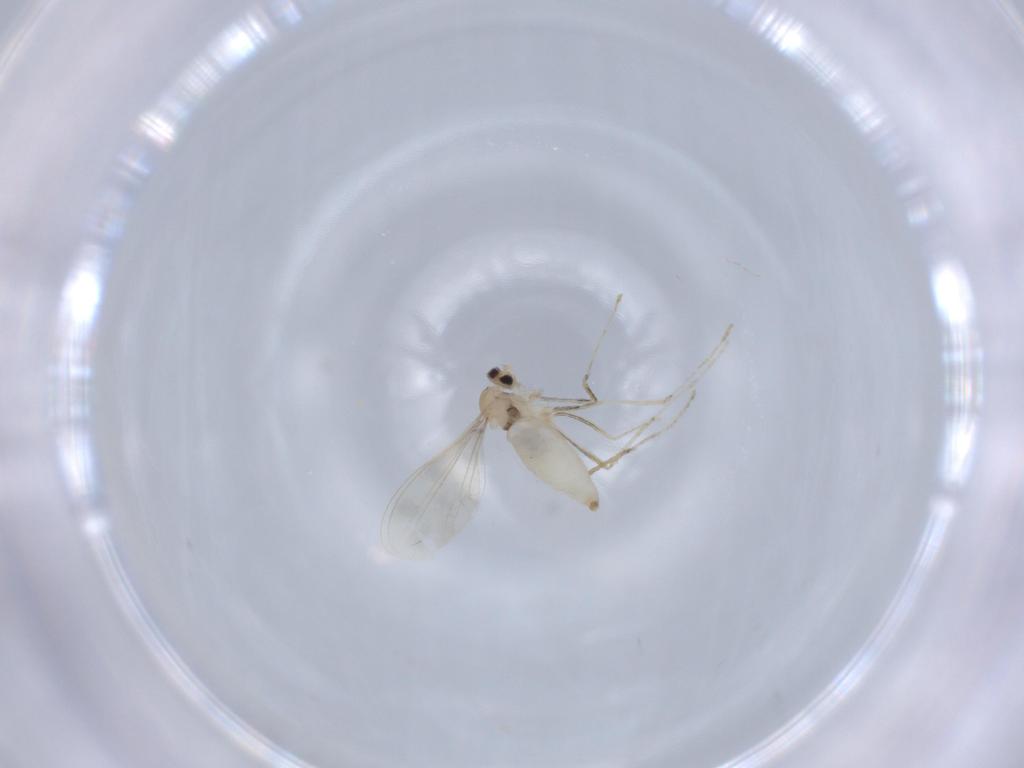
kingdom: Animalia
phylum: Arthropoda
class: Insecta
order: Diptera
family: Cecidomyiidae
